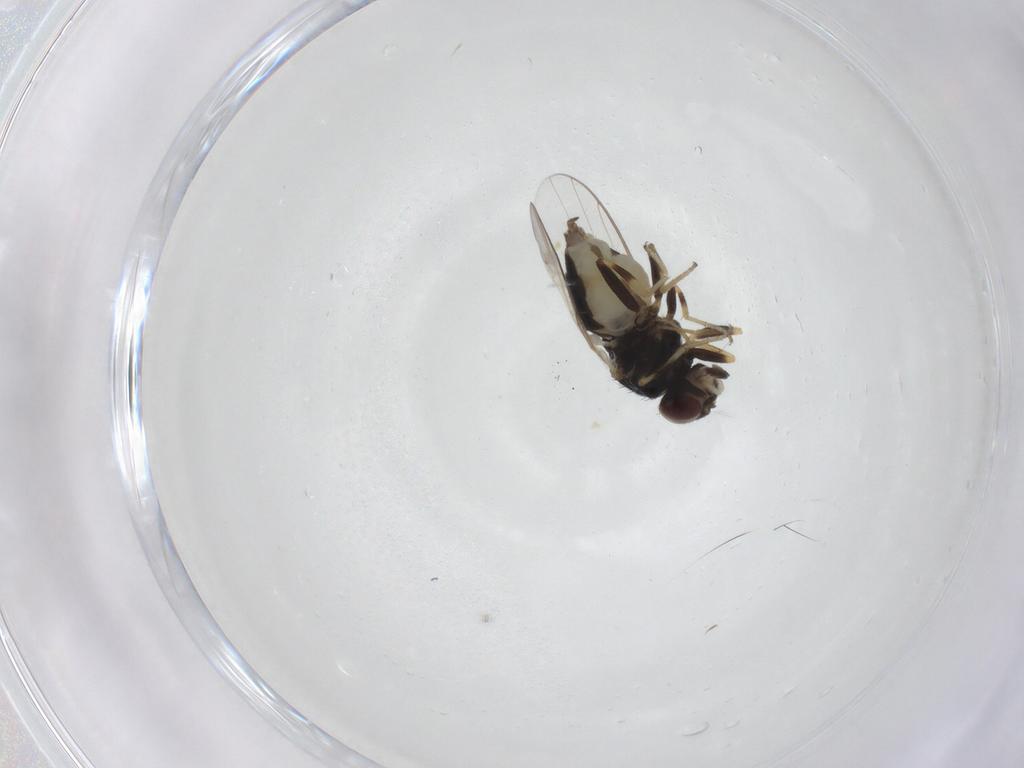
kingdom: Animalia
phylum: Arthropoda
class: Insecta
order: Diptera
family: Chloropidae
